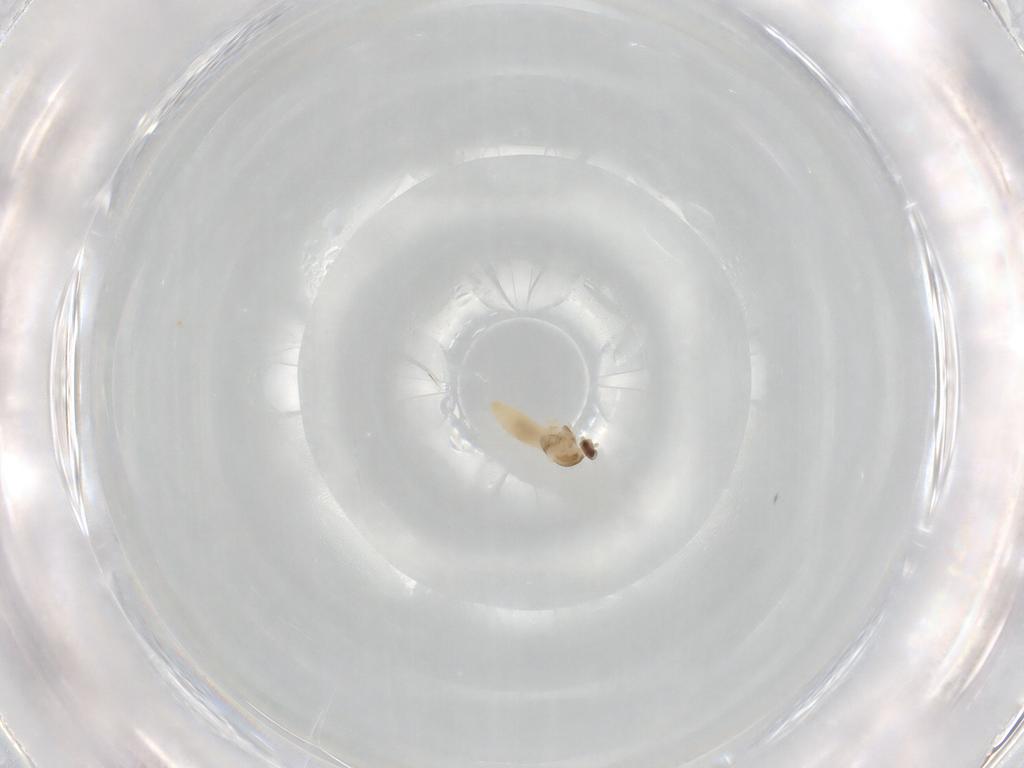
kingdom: Animalia
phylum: Arthropoda
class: Insecta
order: Diptera
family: Cecidomyiidae
